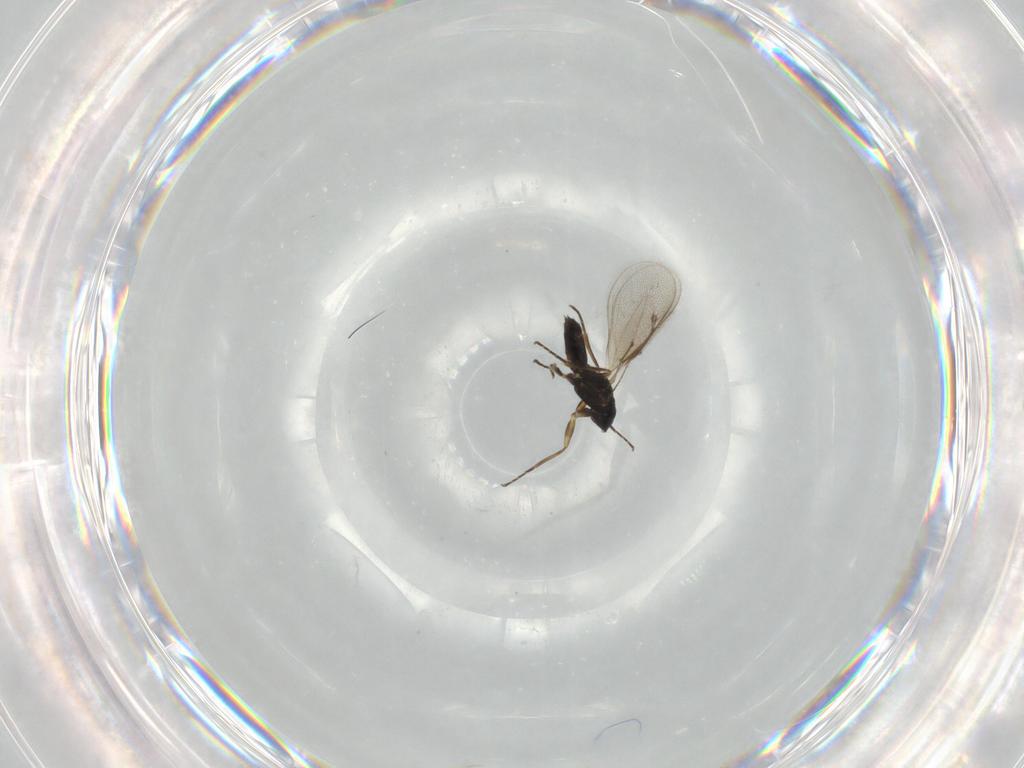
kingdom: Animalia
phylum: Arthropoda
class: Insecta
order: Hymenoptera
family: Eulophidae
